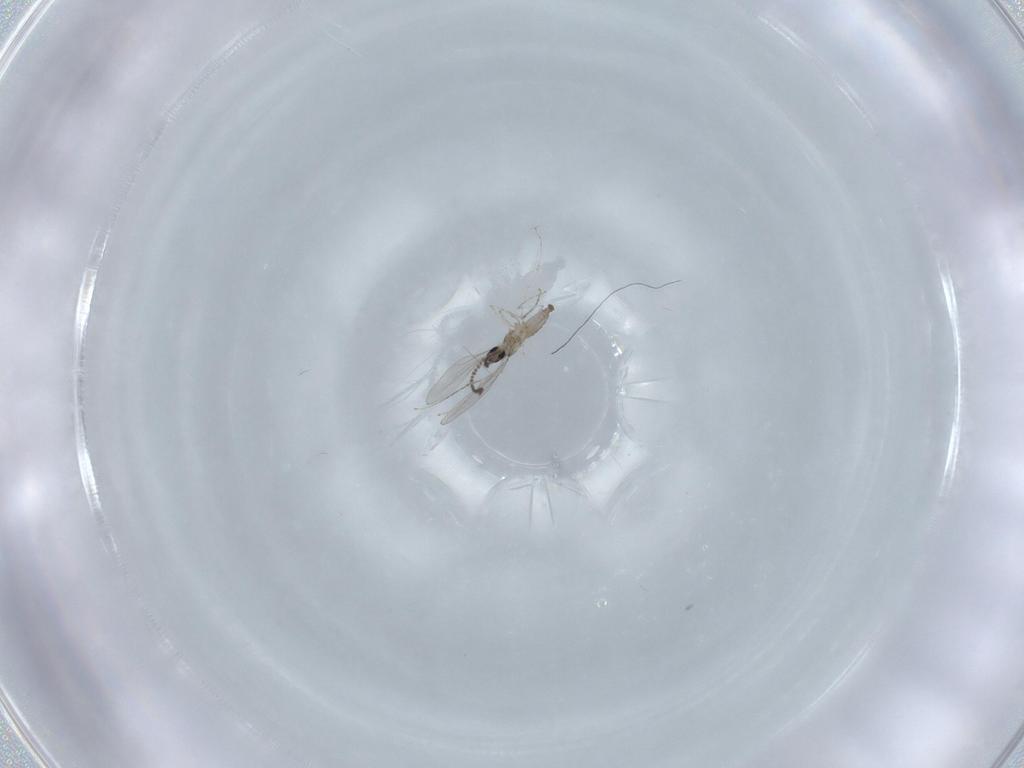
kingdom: Animalia
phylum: Arthropoda
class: Insecta
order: Diptera
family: Cecidomyiidae
